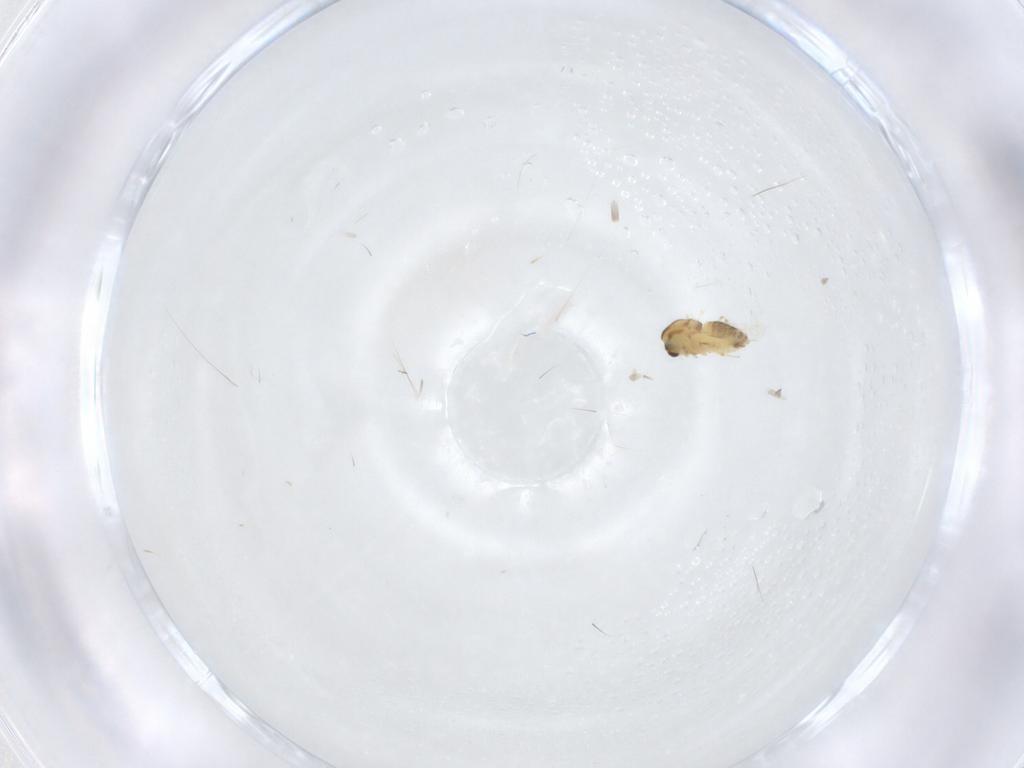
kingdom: Animalia
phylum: Arthropoda
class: Insecta
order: Diptera
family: Chironomidae
